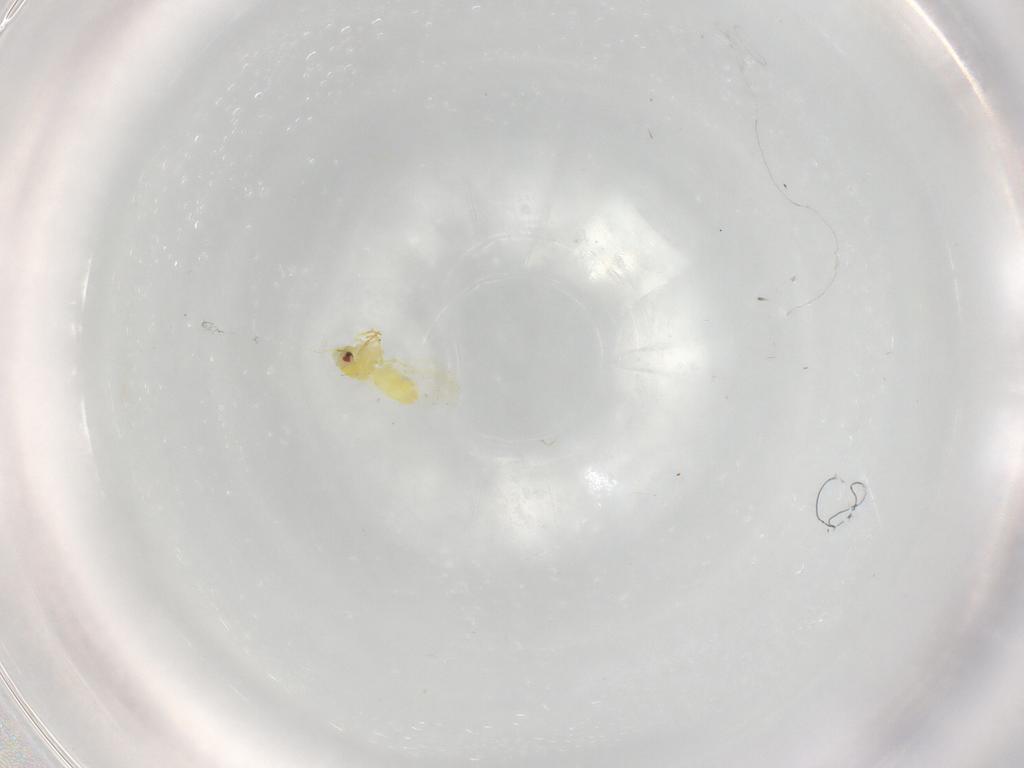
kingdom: Animalia
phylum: Arthropoda
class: Insecta
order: Hemiptera
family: Aleyrodidae
